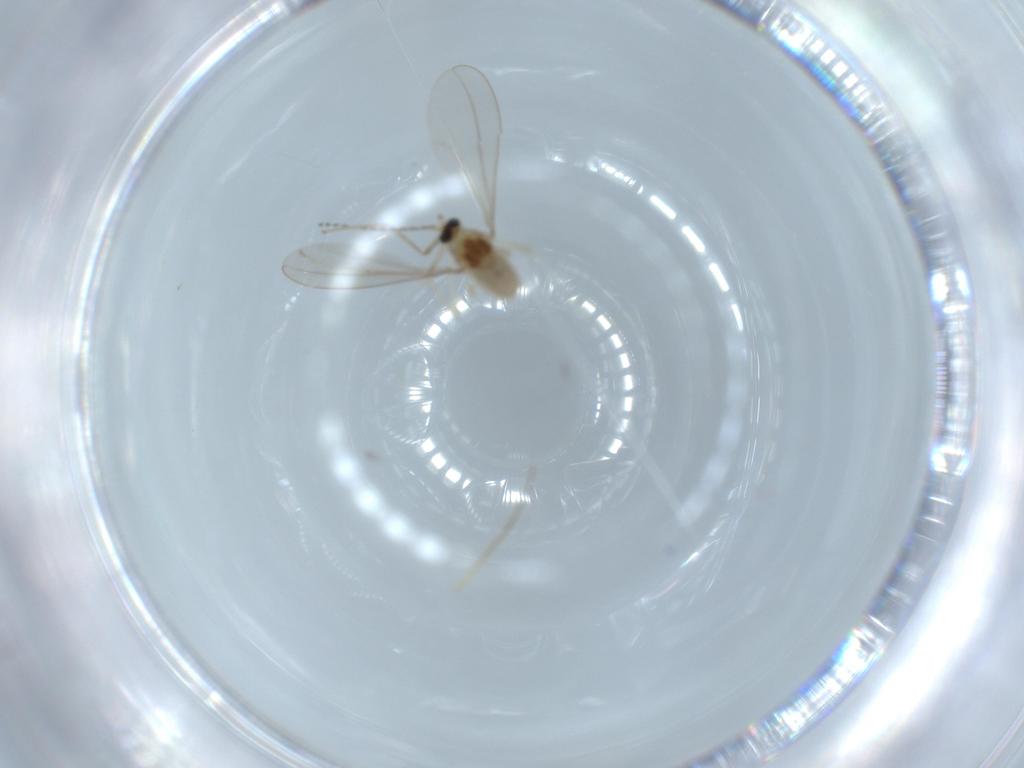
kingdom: Animalia
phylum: Arthropoda
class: Insecta
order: Diptera
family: Cecidomyiidae
